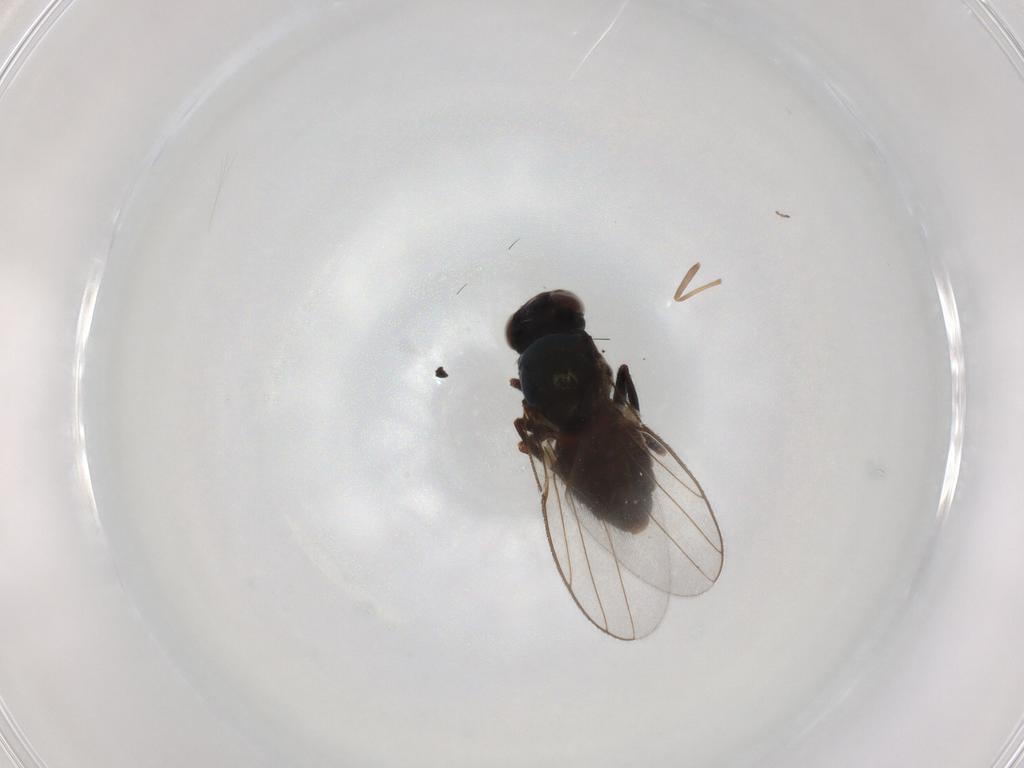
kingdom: Animalia
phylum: Arthropoda
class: Insecta
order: Diptera
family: Chloropidae
